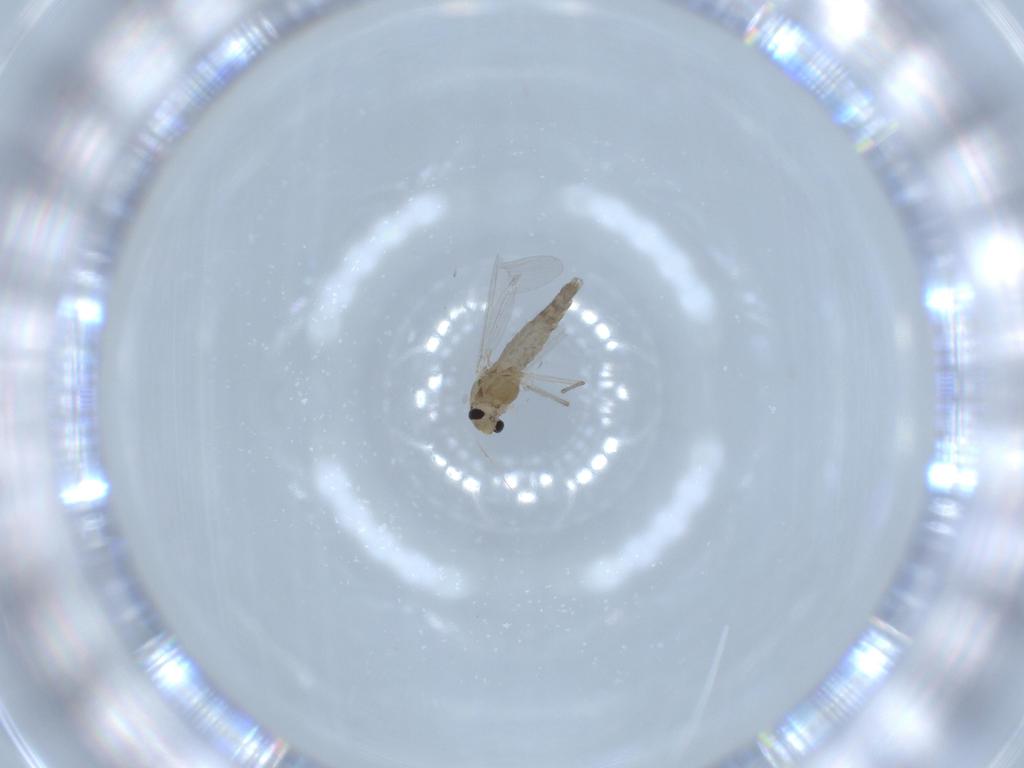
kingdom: Animalia
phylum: Arthropoda
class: Insecta
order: Diptera
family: Chironomidae
